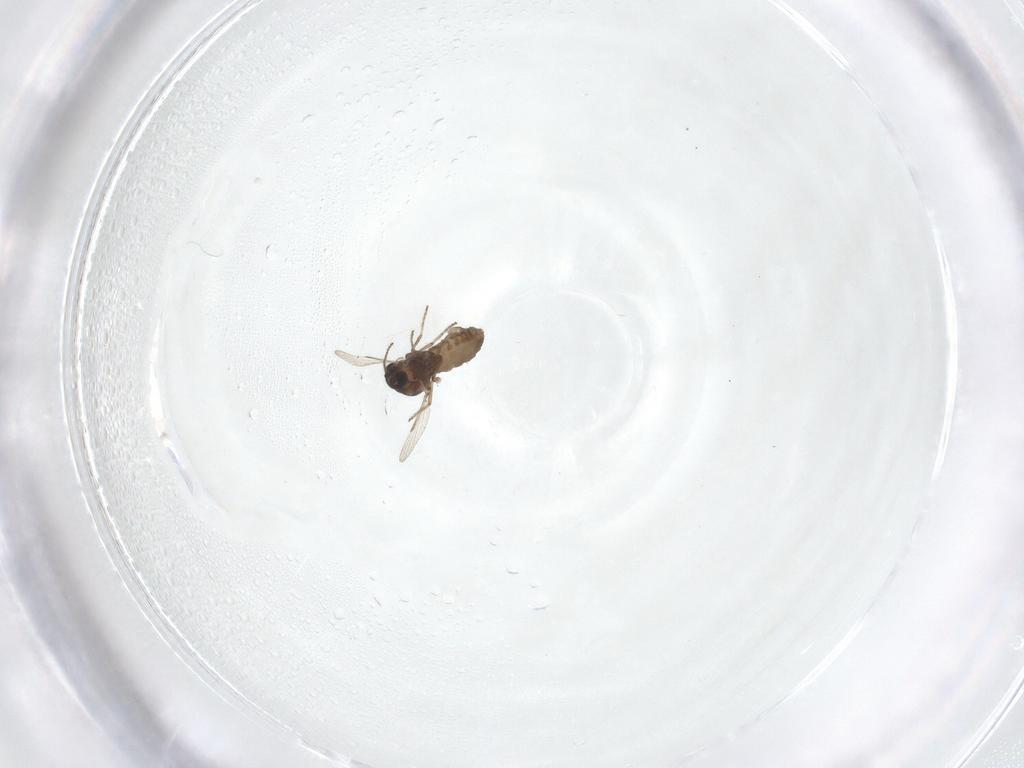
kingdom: Animalia
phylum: Arthropoda
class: Insecta
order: Diptera
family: Ceratopogonidae
